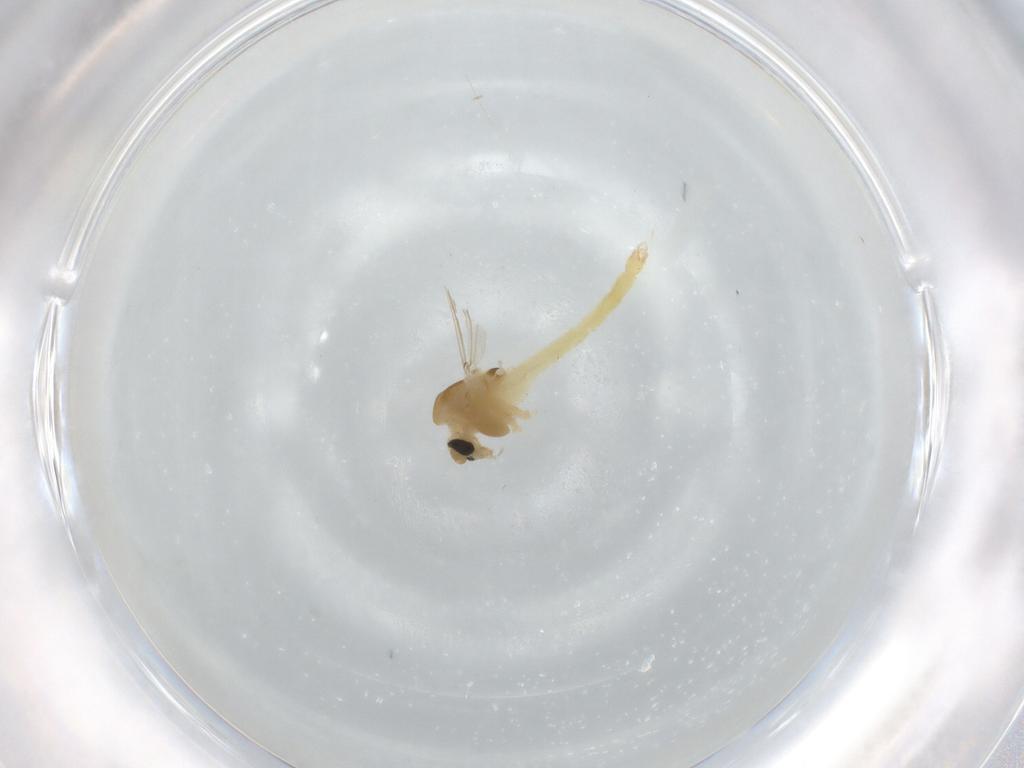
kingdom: Animalia
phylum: Arthropoda
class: Insecta
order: Diptera
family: Chironomidae
